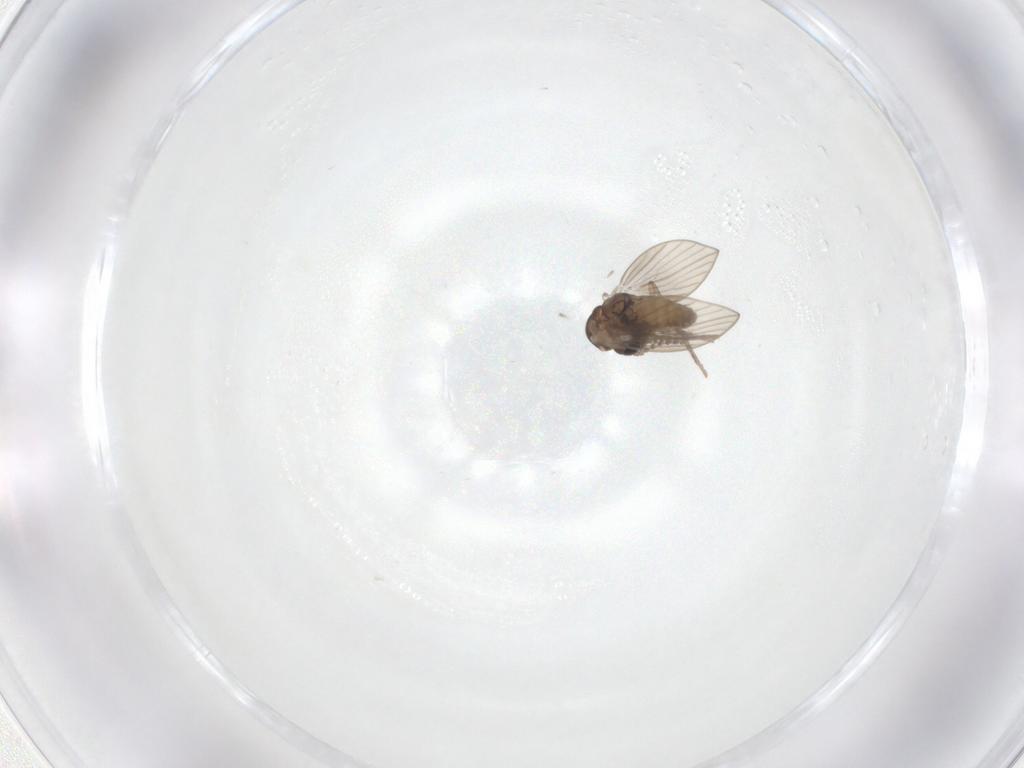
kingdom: Animalia
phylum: Arthropoda
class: Insecta
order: Diptera
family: Psychodidae
